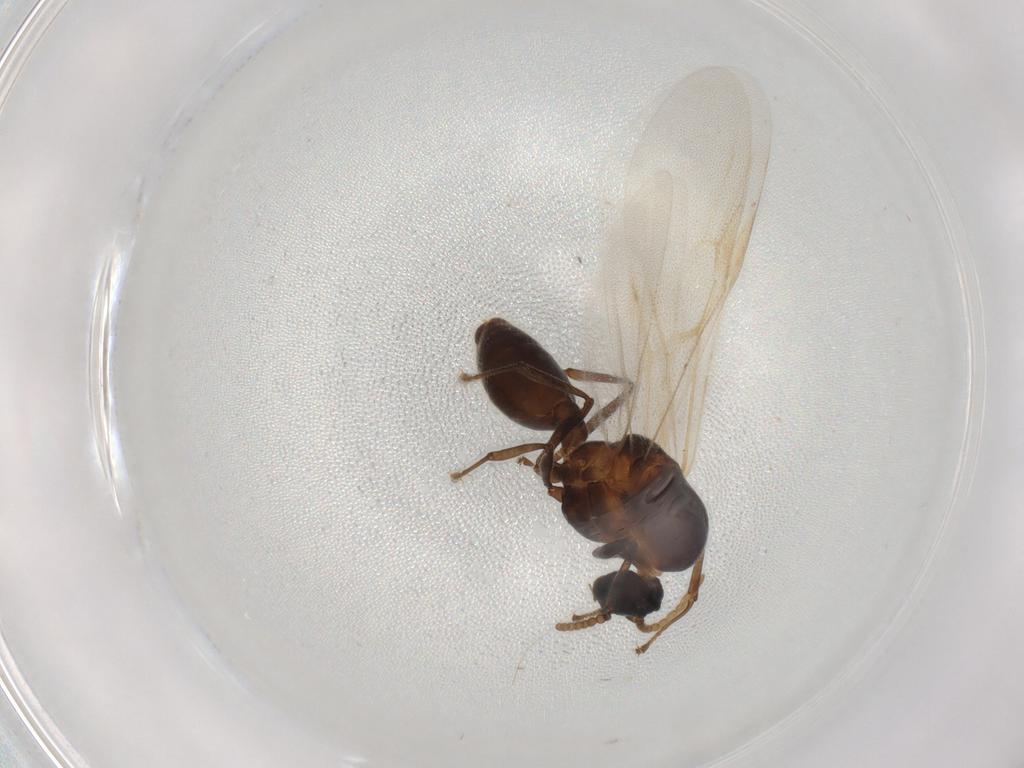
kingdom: Animalia
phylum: Arthropoda
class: Insecta
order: Hymenoptera
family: Formicidae
